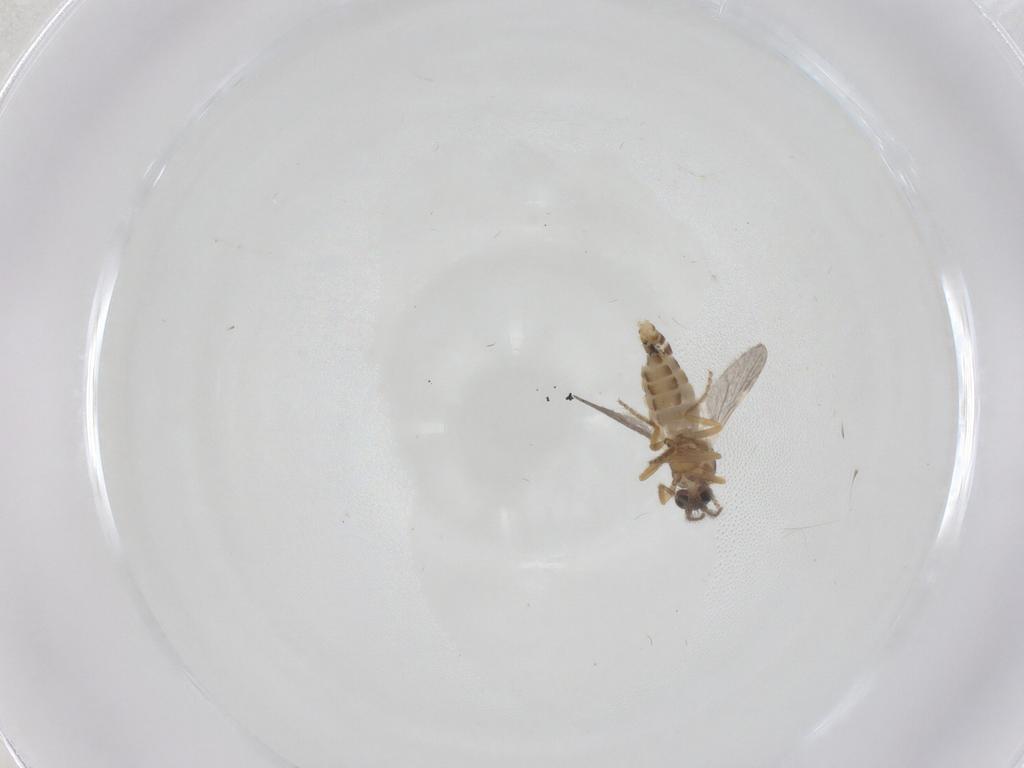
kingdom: Animalia
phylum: Arthropoda
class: Insecta
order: Diptera
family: Ceratopogonidae
